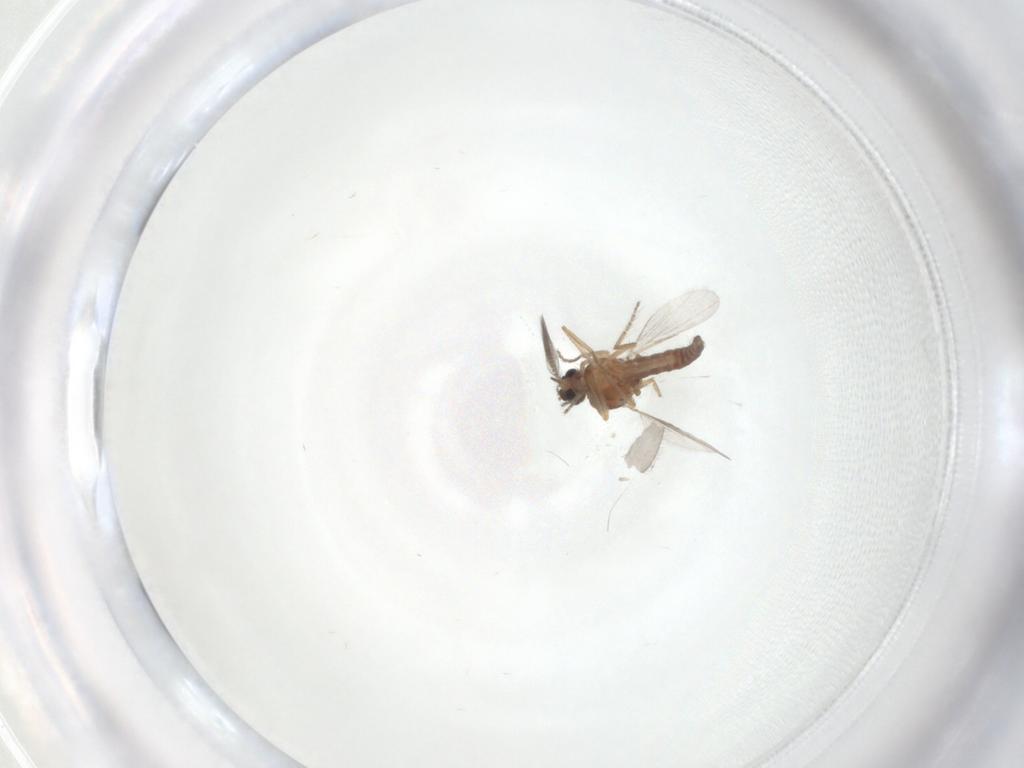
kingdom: Animalia
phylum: Arthropoda
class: Insecta
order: Diptera
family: Ceratopogonidae
